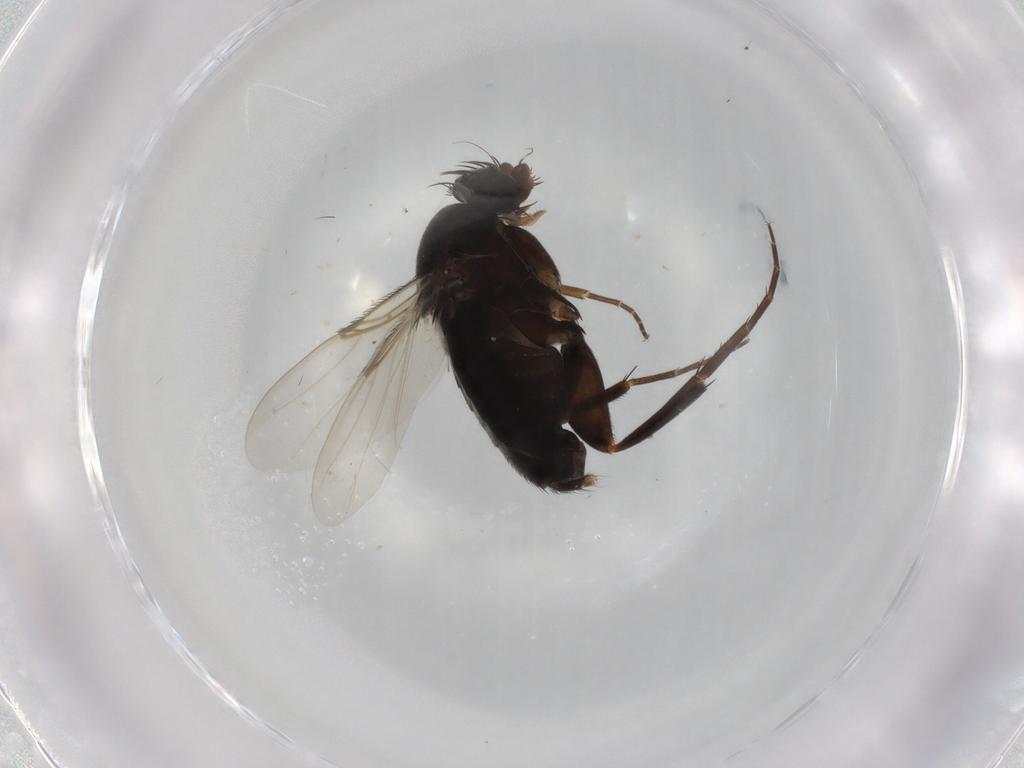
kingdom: Animalia
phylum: Arthropoda
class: Insecta
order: Diptera
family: Phoridae
